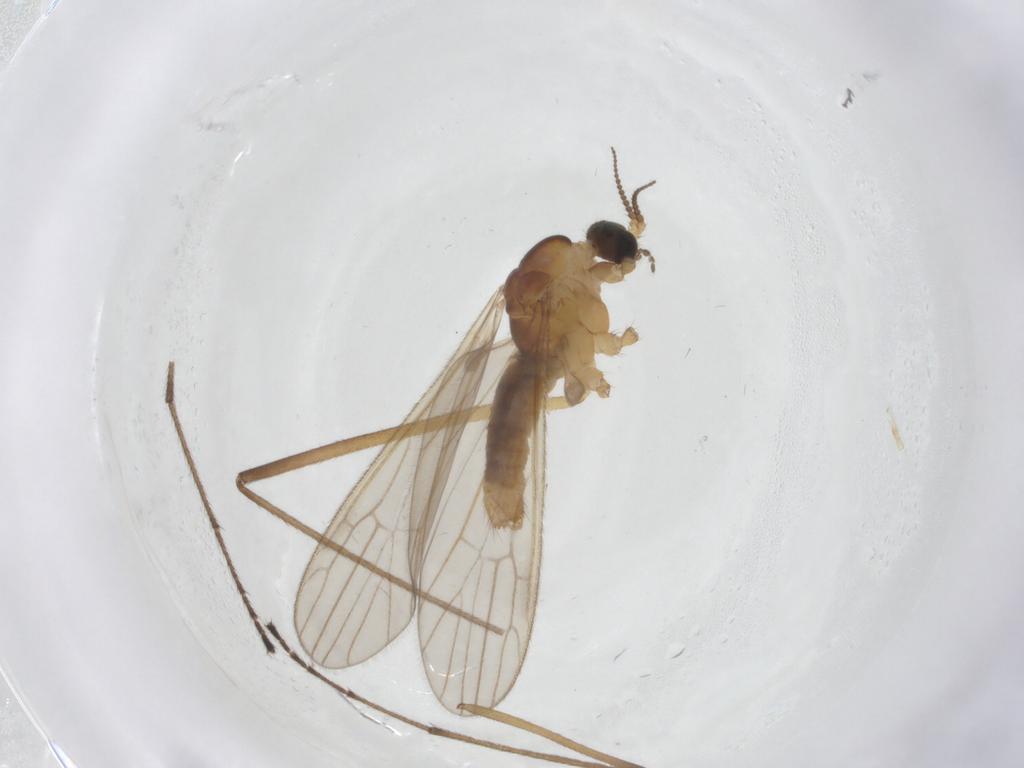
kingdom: Animalia
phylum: Arthropoda
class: Insecta
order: Diptera
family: Limoniidae
